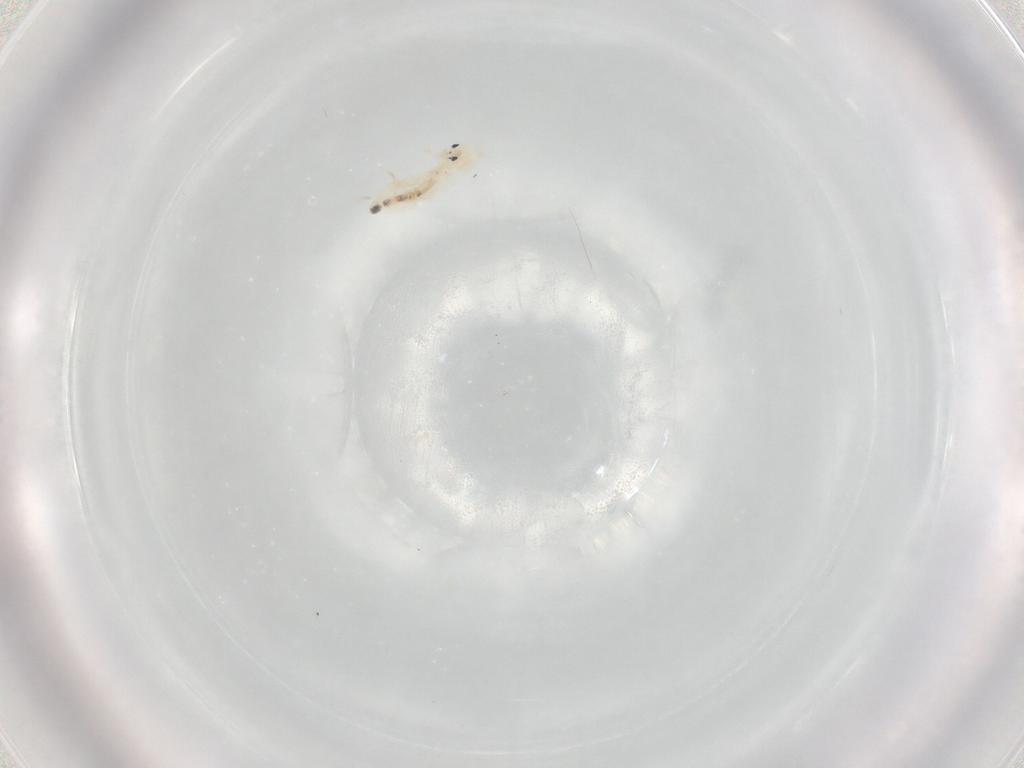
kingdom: Animalia
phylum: Arthropoda
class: Collembola
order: Entomobryomorpha
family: Entomobryidae
